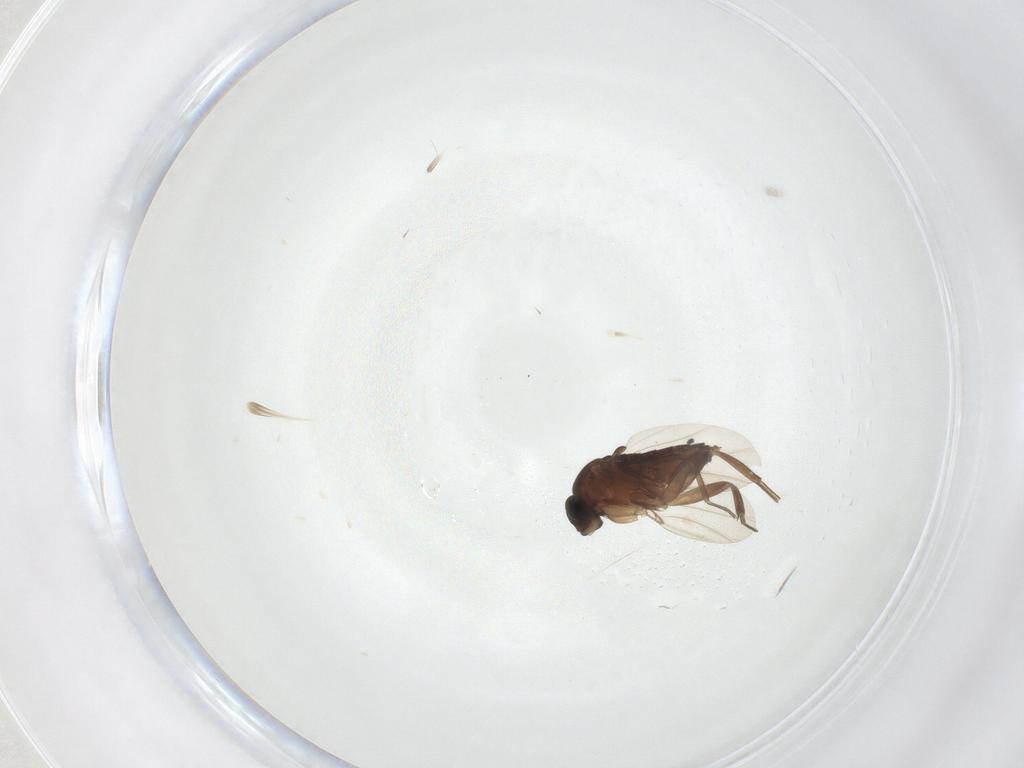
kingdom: Animalia
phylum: Arthropoda
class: Insecta
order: Diptera
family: Phoridae
